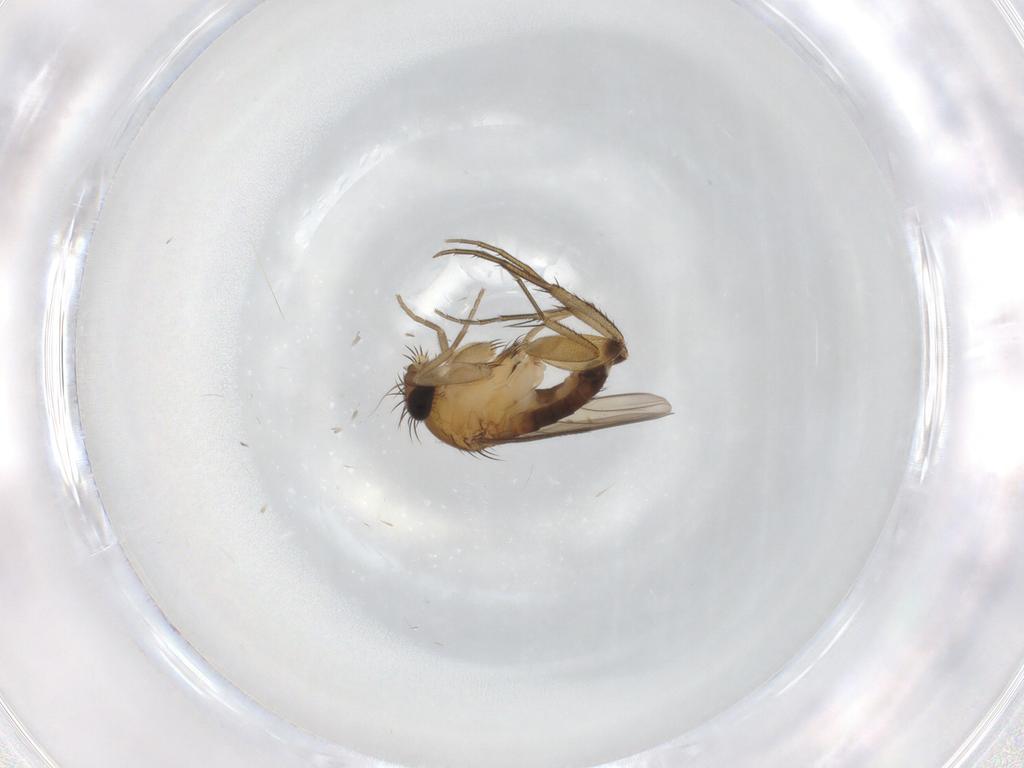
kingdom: Animalia
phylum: Arthropoda
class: Insecta
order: Diptera
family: Phoridae
